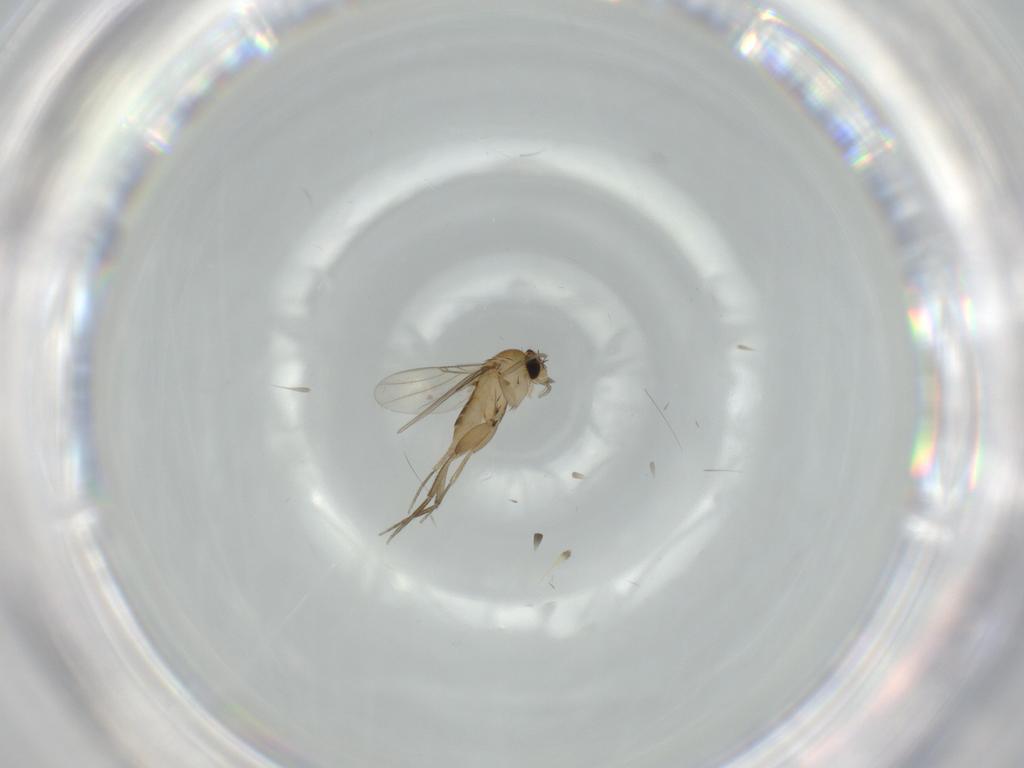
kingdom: Animalia
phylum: Arthropoda
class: Insecta
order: Diptera
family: Phoridae
